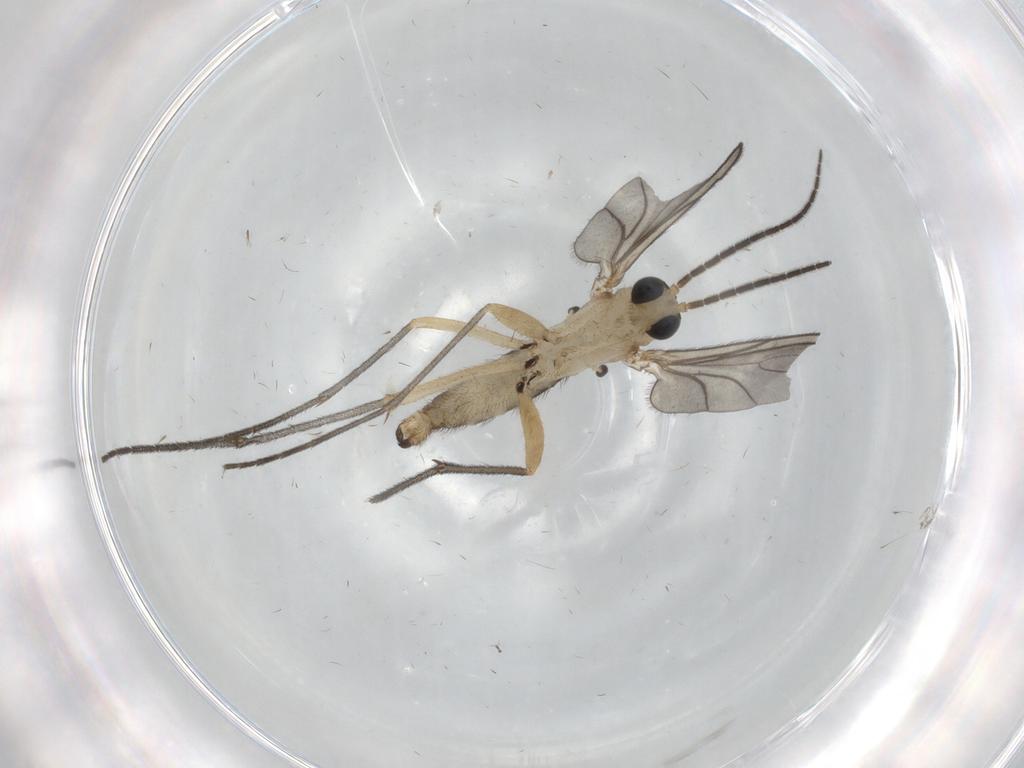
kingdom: Animalia
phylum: Arthropoda
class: Insecta
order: Diptera
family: Sciaridae
